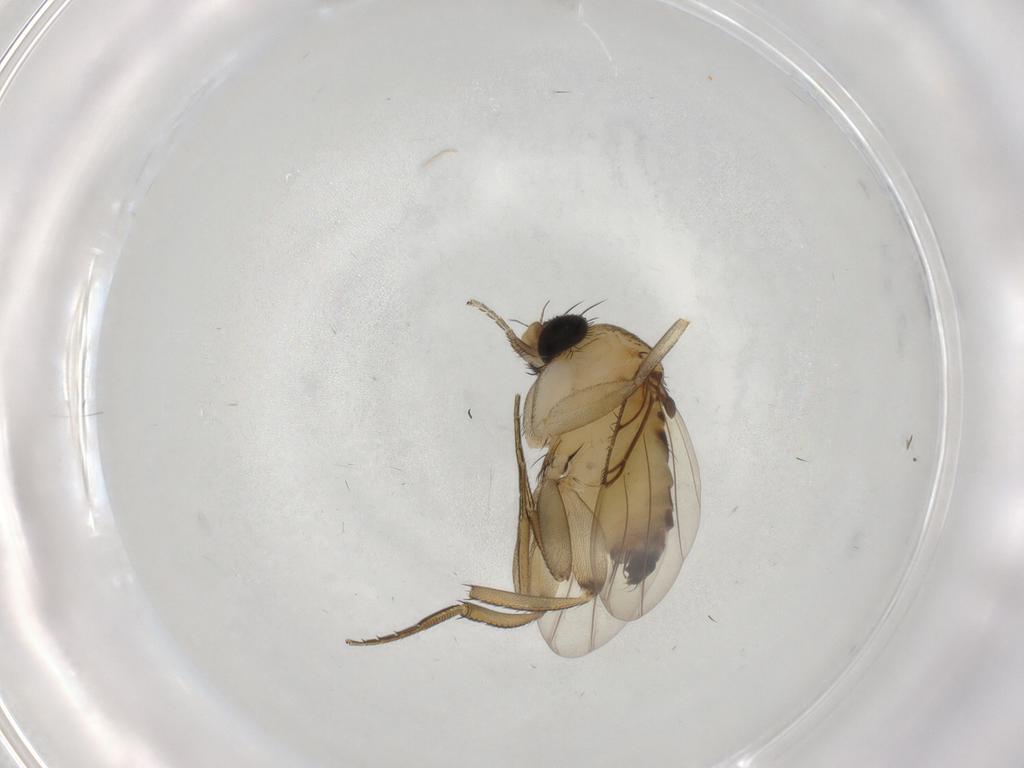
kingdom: Animalia
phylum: Arthropoda
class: Insecta
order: Diptera
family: Phoridae
